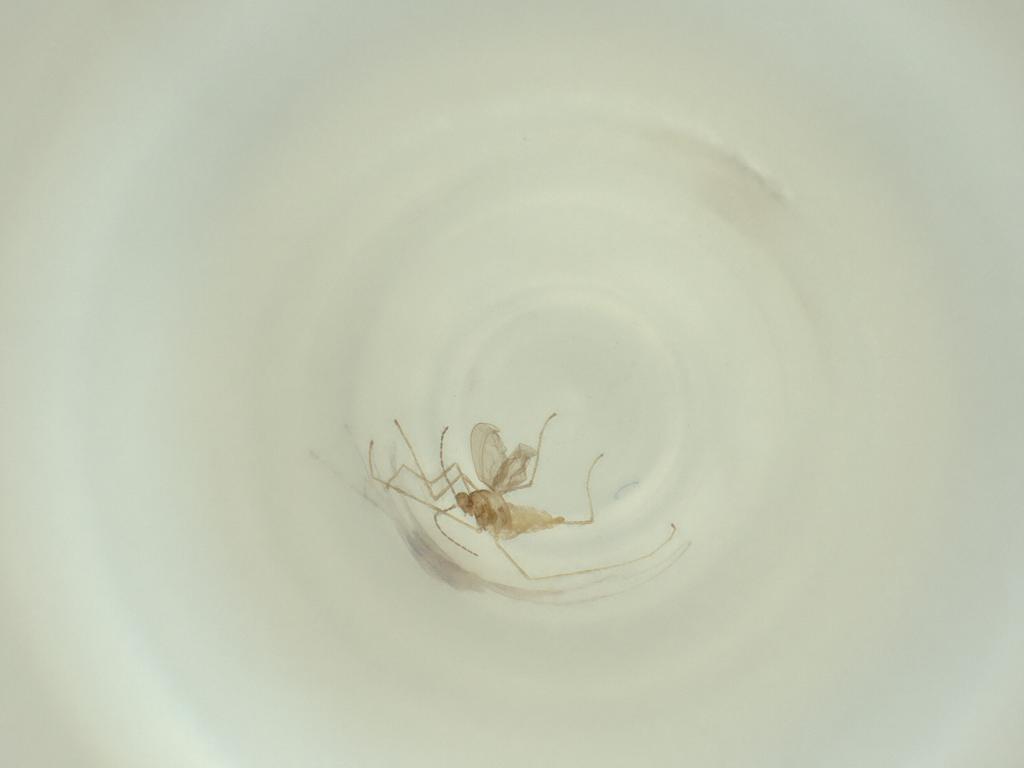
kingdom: Animalia
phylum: Arthropoda
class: Insecta
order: Diptera
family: Cecidomyiidae
